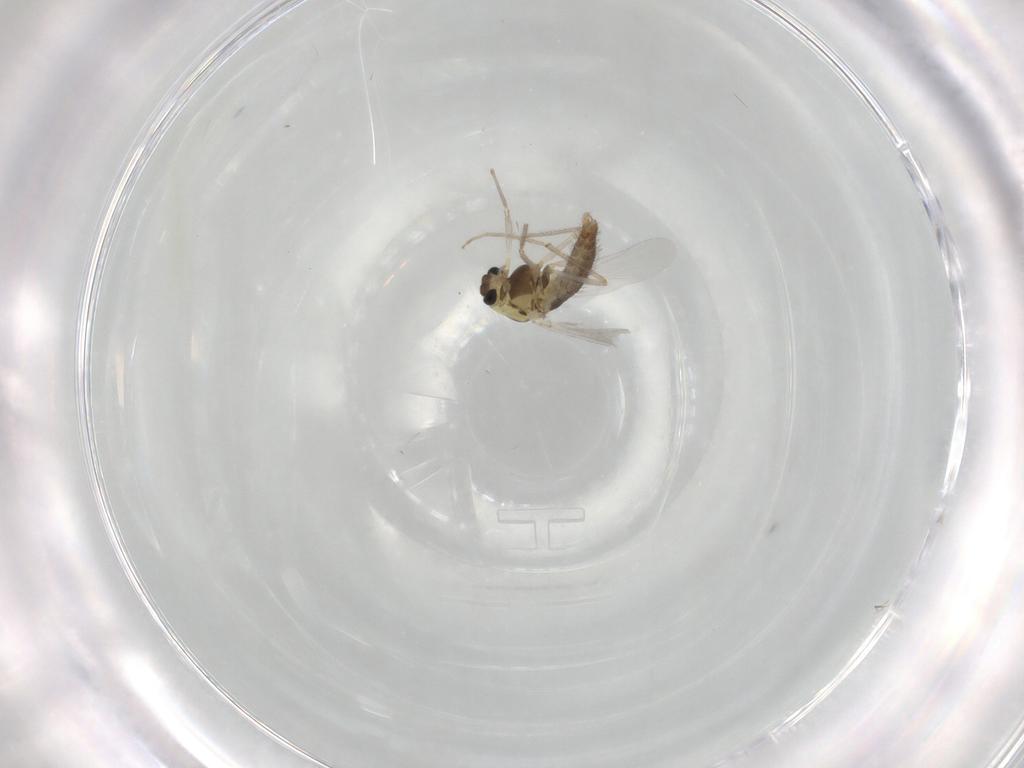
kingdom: Animalia
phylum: Arthropoda
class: Insecta
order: Diptera
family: Chironomidae
